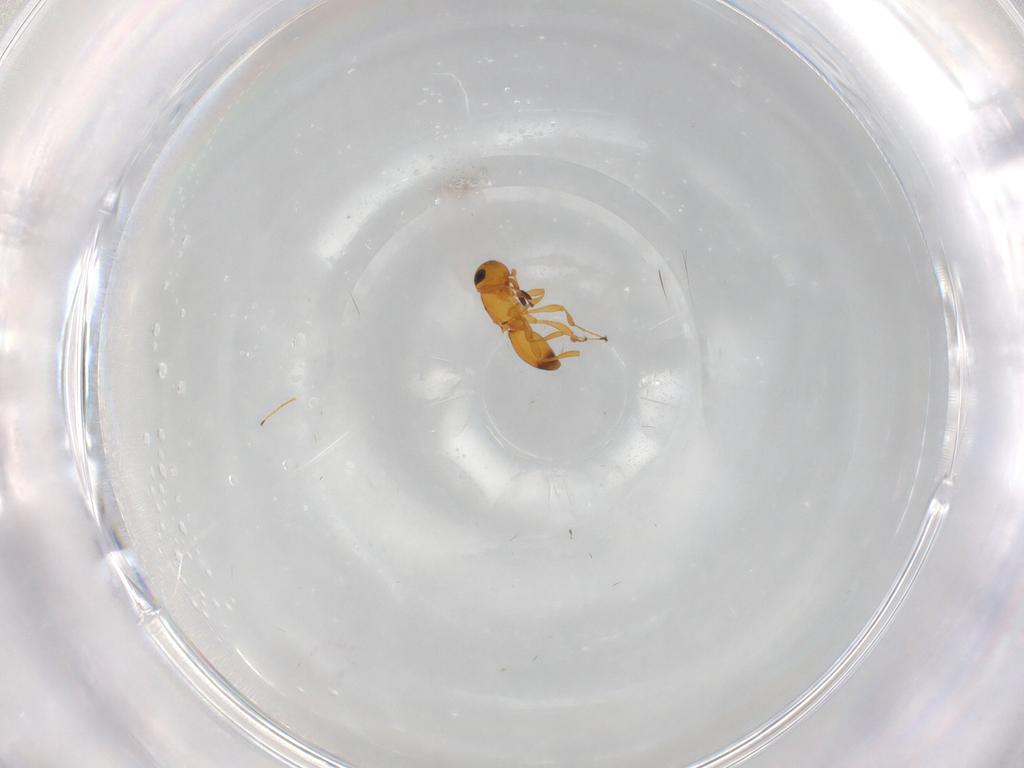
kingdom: Animalia
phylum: Arthropoda
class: Insecta
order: Hymenoptera
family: Platygastridae
